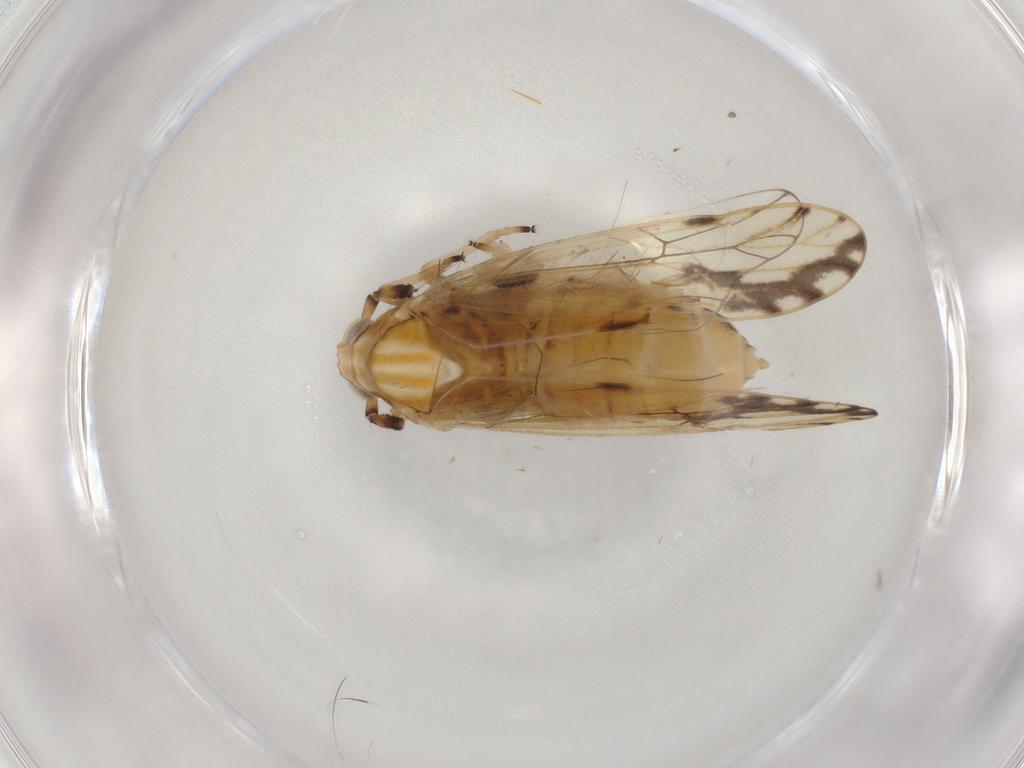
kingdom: Animalia
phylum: Arthropoda
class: Insecta
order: Hemiptera
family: Delphacidae
